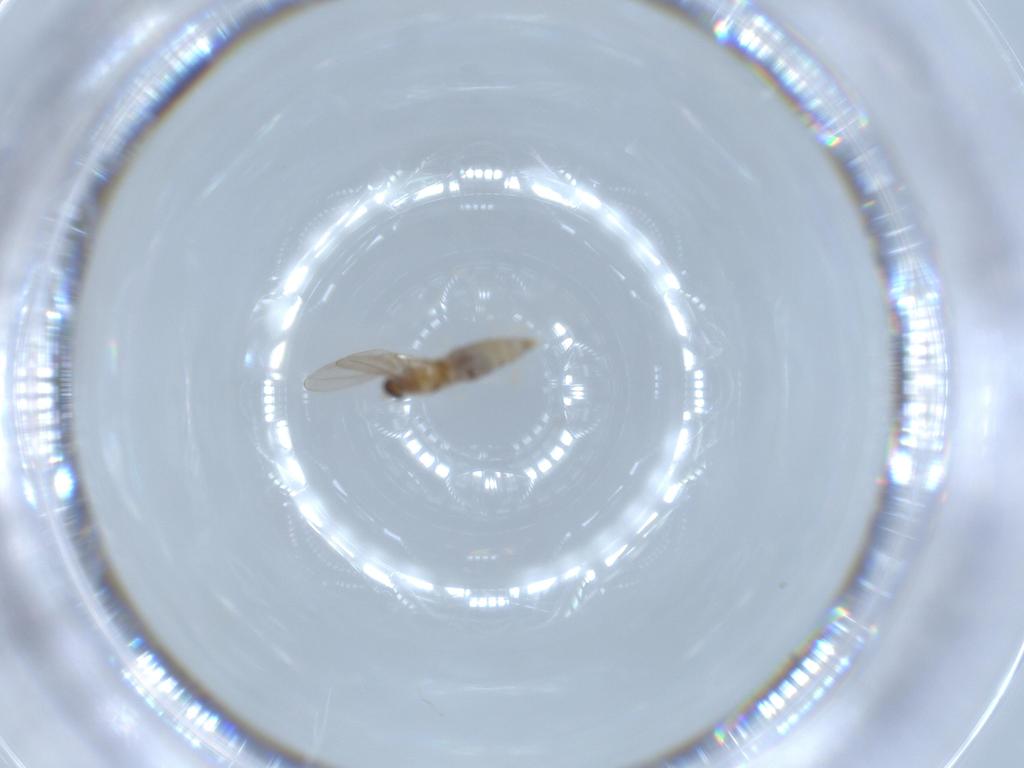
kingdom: Animalia
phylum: Arthropoda
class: Insecta
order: Diptera
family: Cecidomyiidae
